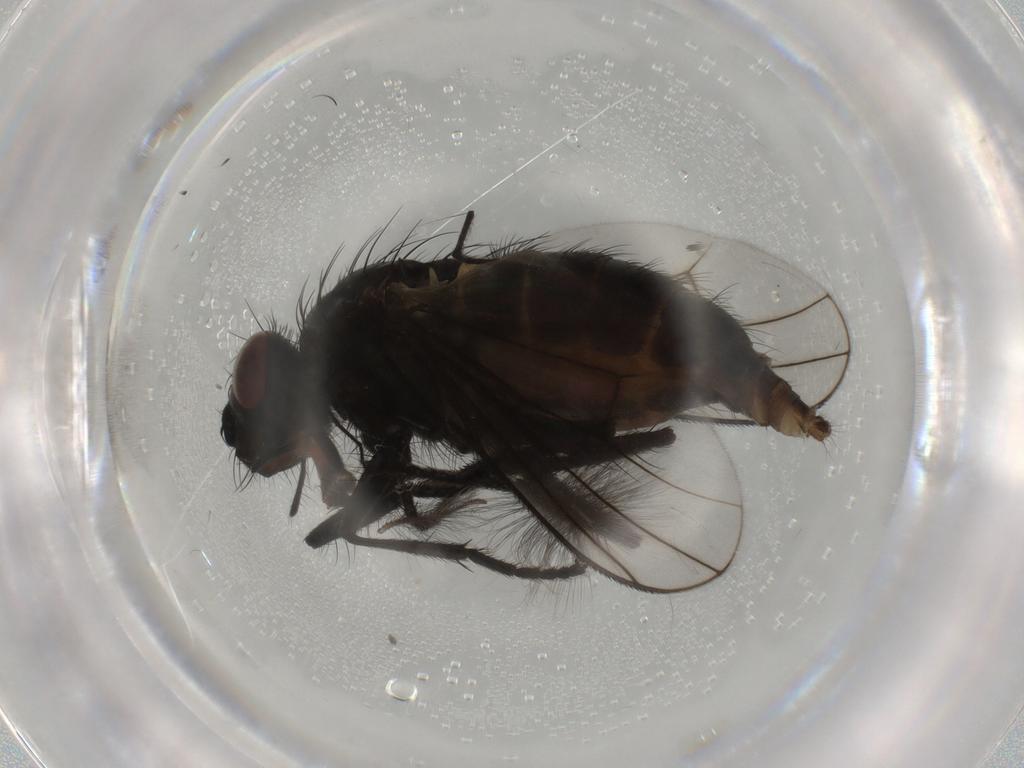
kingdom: Animalia
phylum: Arthropoda
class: Insecta
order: Diptera
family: Muscidae
